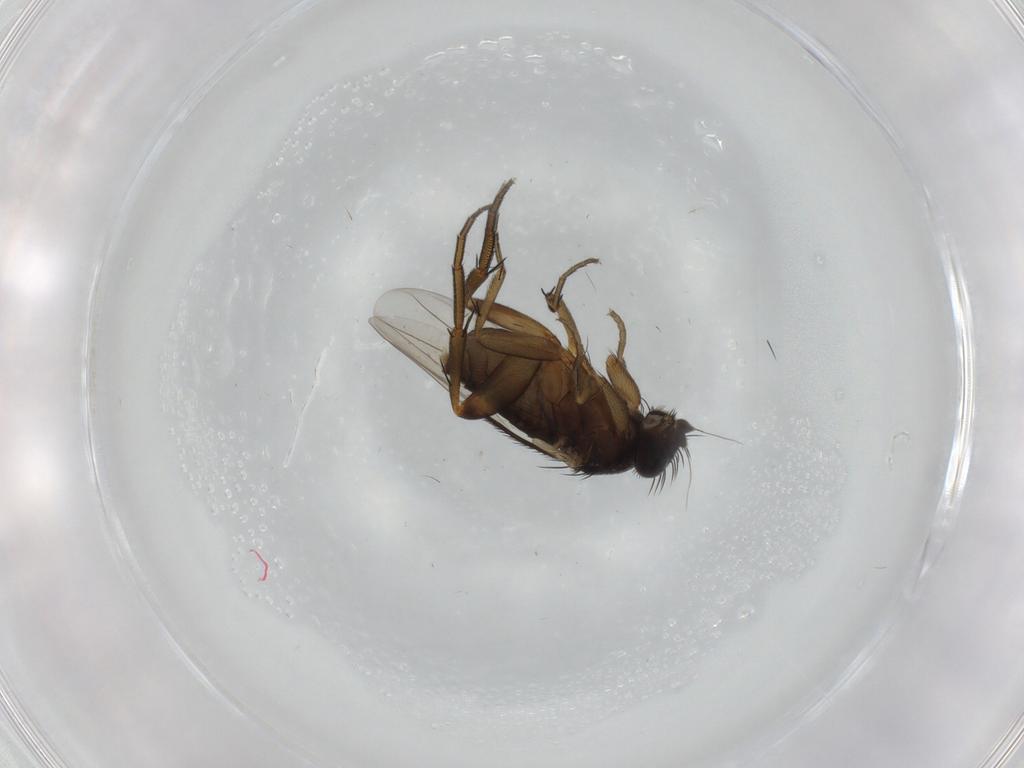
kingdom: Animalia
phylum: Arthropoda
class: Insecta
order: Diptera
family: Phoridae
